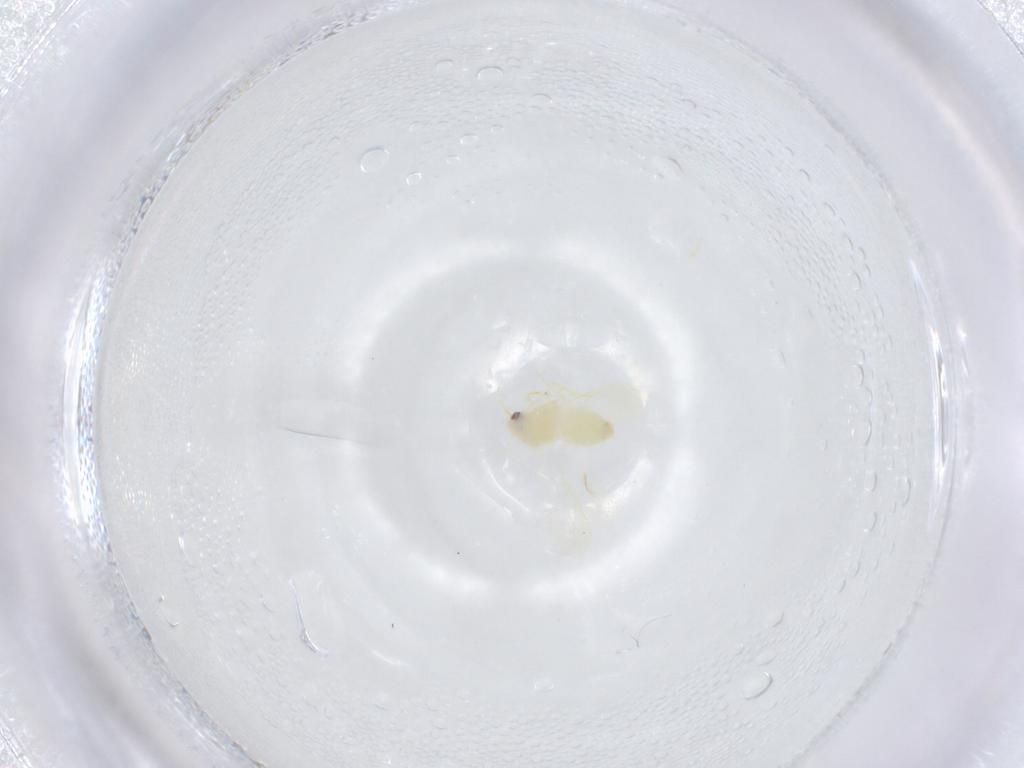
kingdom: Animalia
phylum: Arthropoda
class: Insecta
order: Hemiptera
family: Aleyrodidae
